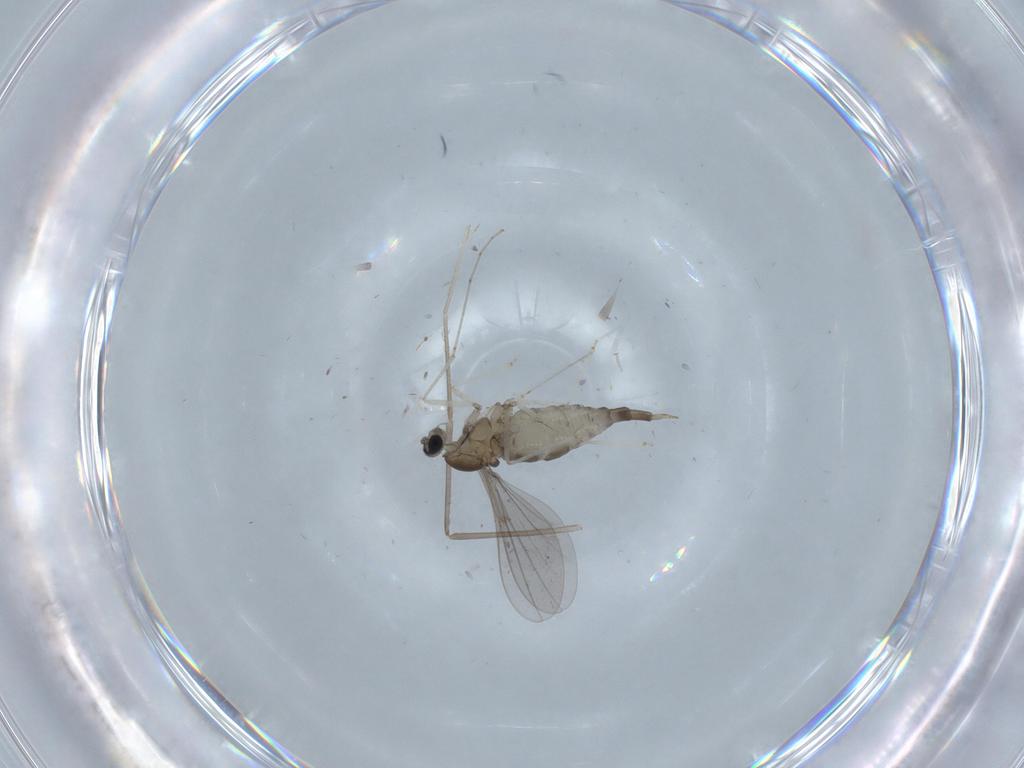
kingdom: Animalia
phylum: Arthropoda
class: Insecta
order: Diptera
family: Cecidomyiidae
